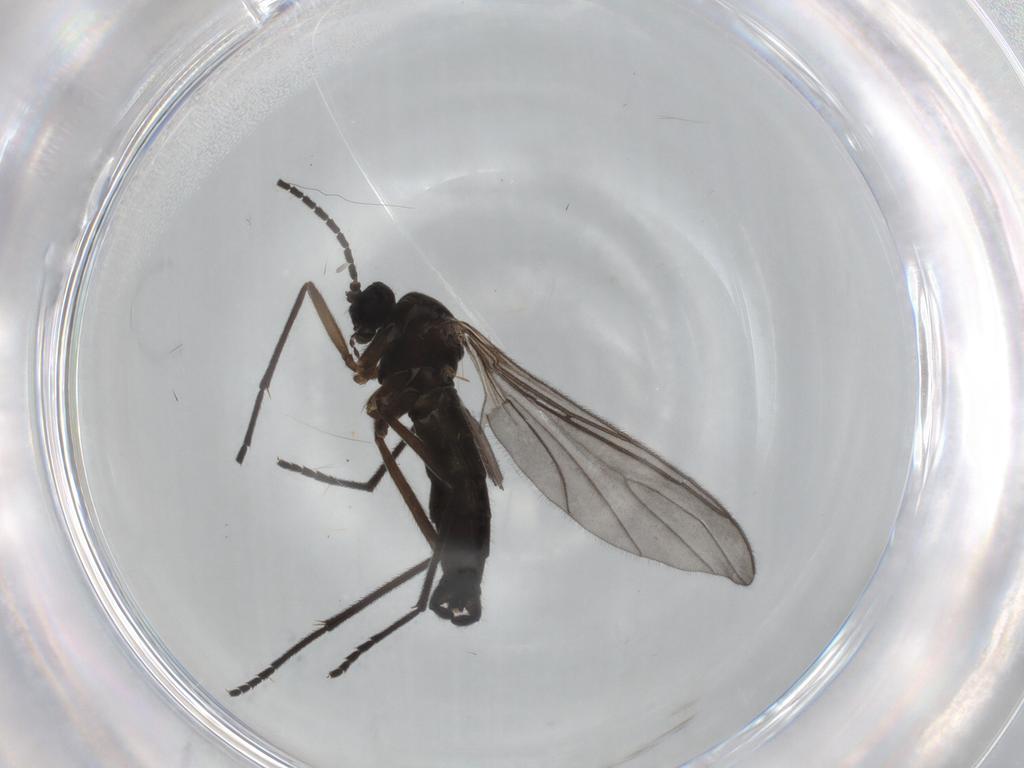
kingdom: Animalia
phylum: Arthropoda
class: Insecta
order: Diptera
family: Sciaridae
